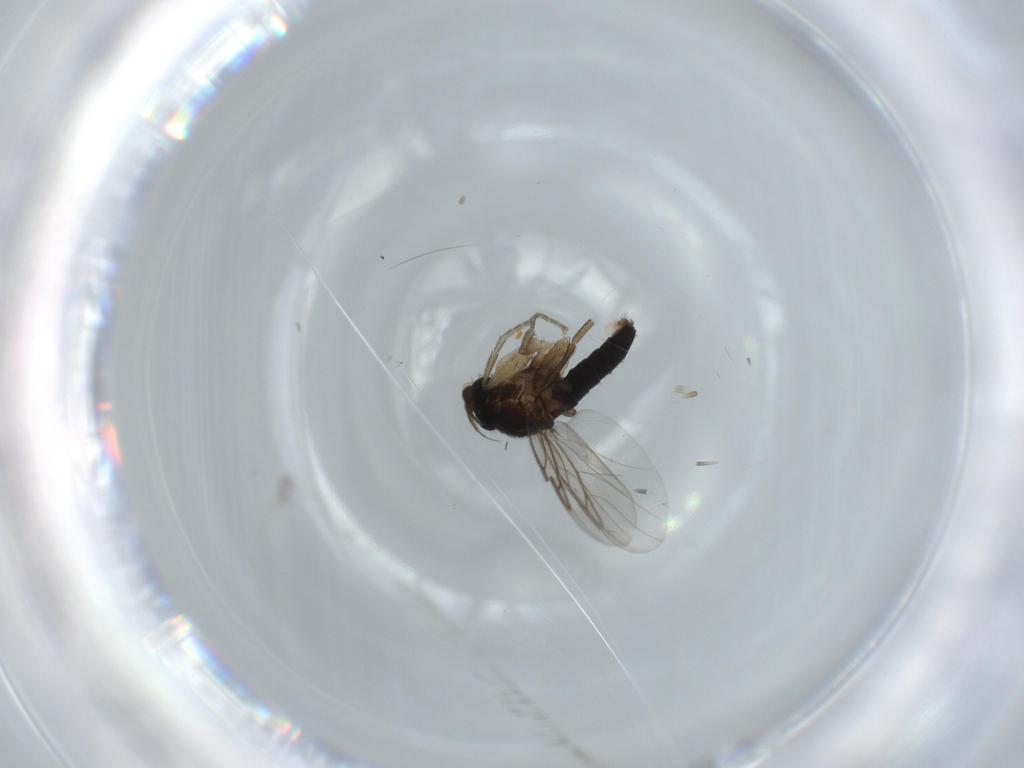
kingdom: Animalia
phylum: Arthropoda
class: Insecta
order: Diptera
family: Phoridae
